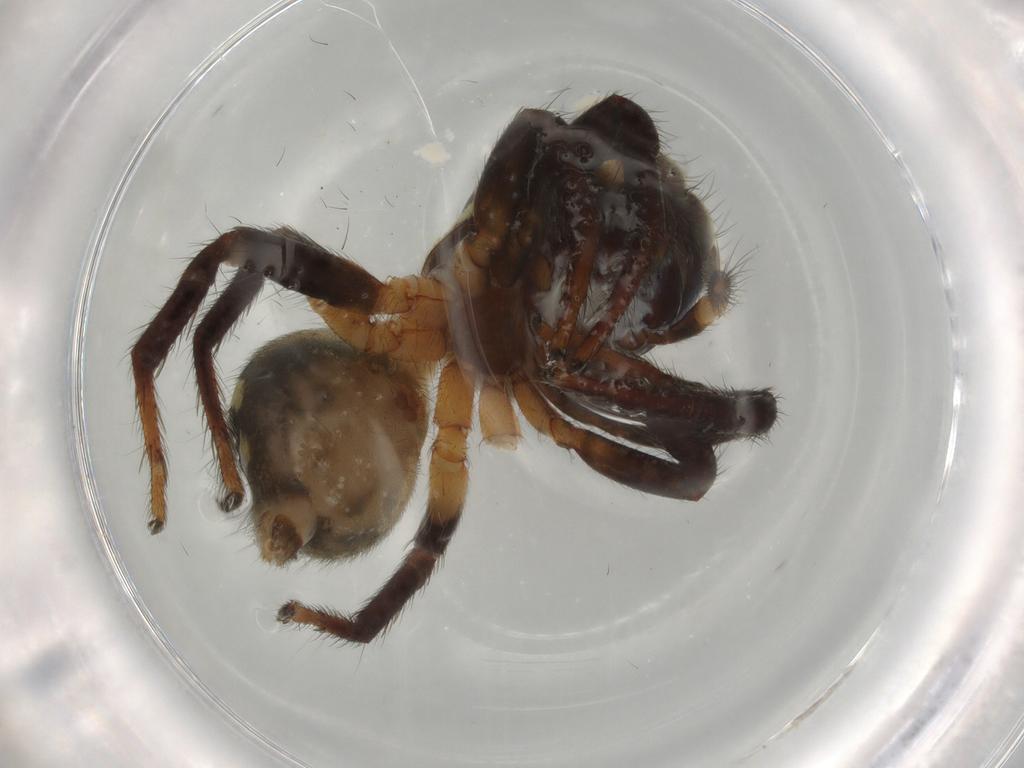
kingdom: Animalia
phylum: Arthropoda
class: Arachnida
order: Araneae
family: Salticidae
